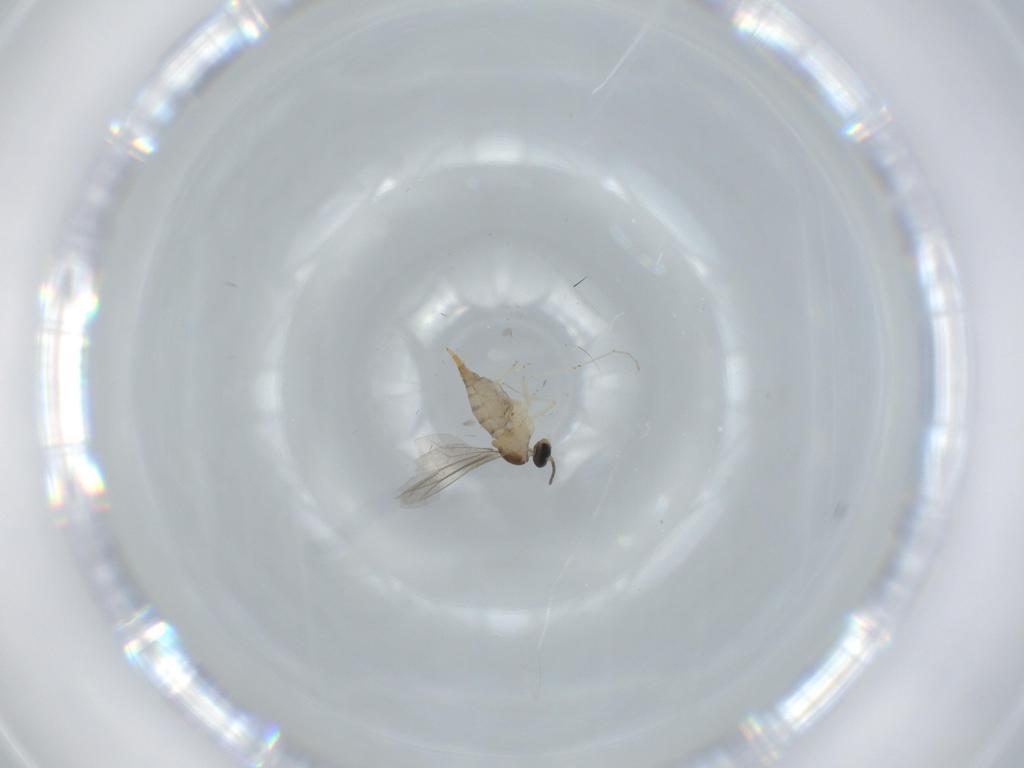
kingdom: Animalia
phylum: Arthropoda
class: Insecta
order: Diptera
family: Cecidomyiidae
